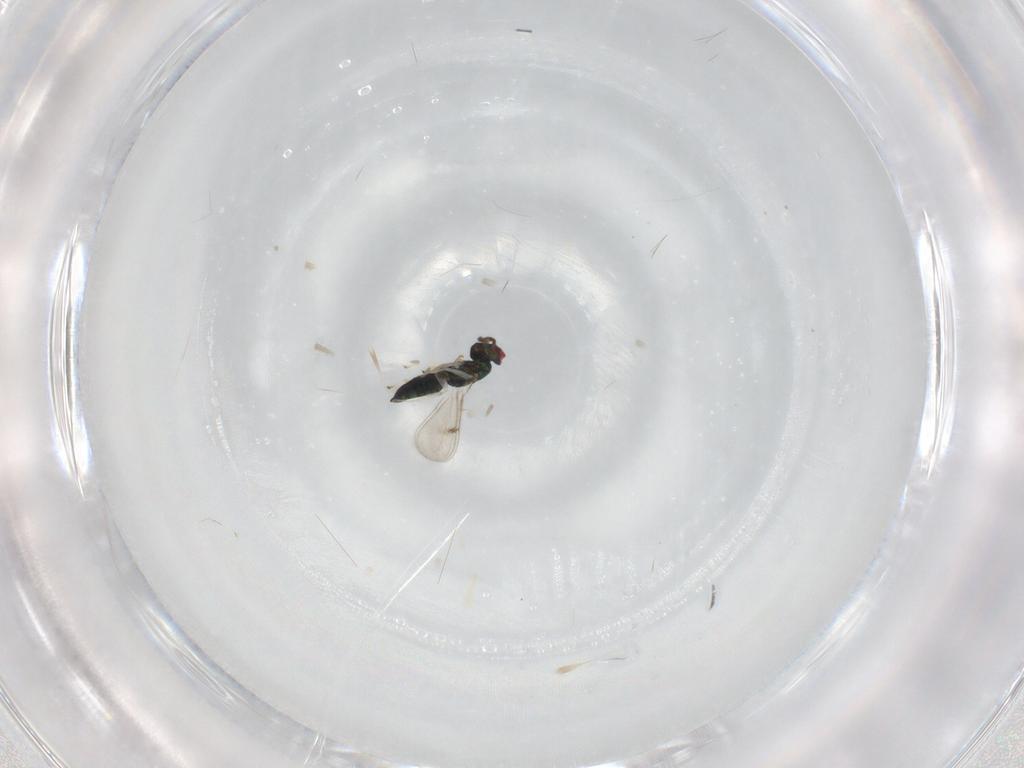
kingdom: Animalia
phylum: Arthropoda
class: Insecta
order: Hymenoptera
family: Eulophidae
